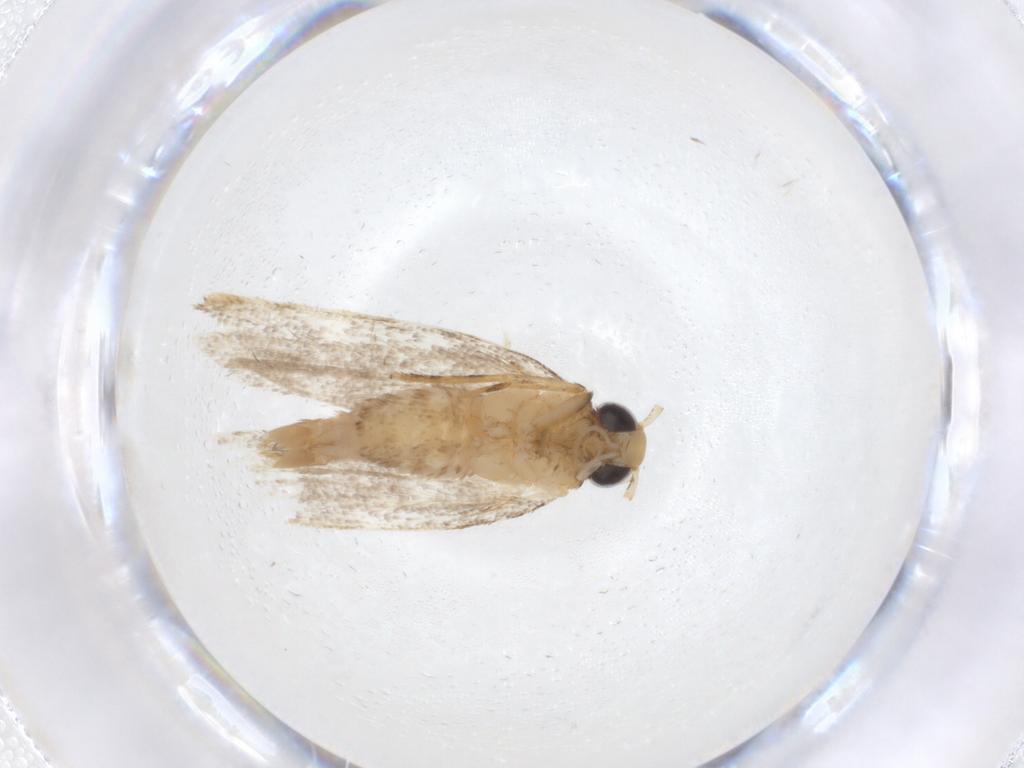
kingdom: Animalia
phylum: Arthropoda
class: Insecta
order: Lepidoptera
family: Oecophoridae
